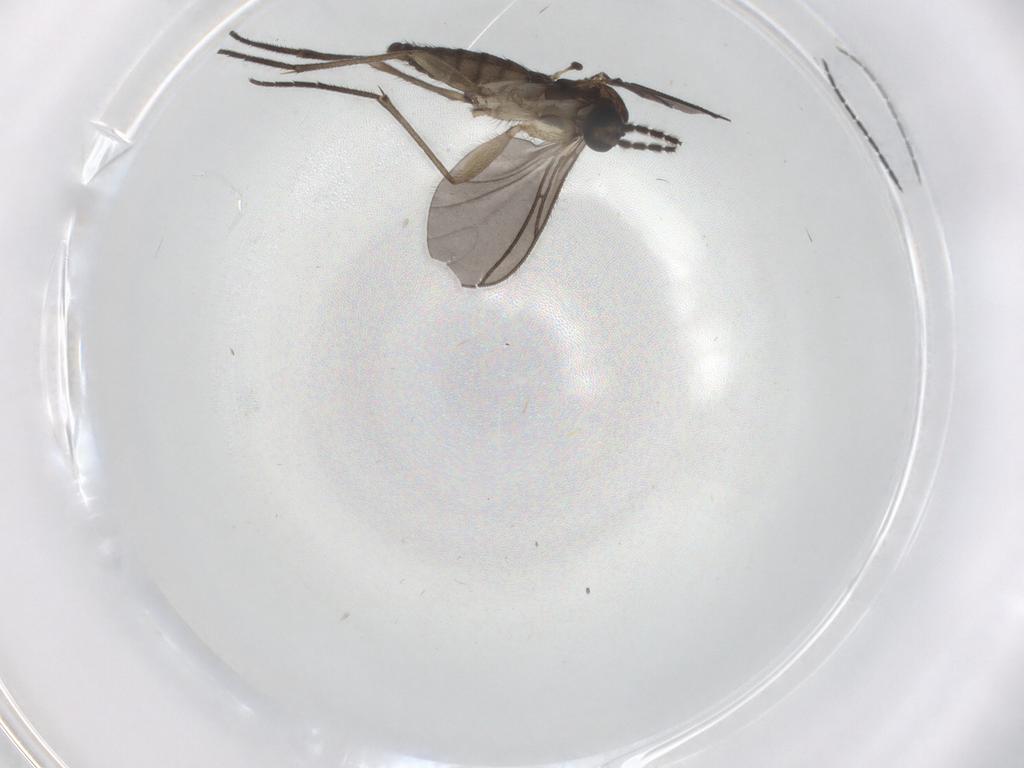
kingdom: Animalia
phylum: Arthropoda
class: Insecta
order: Diptera
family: Sciaridae
